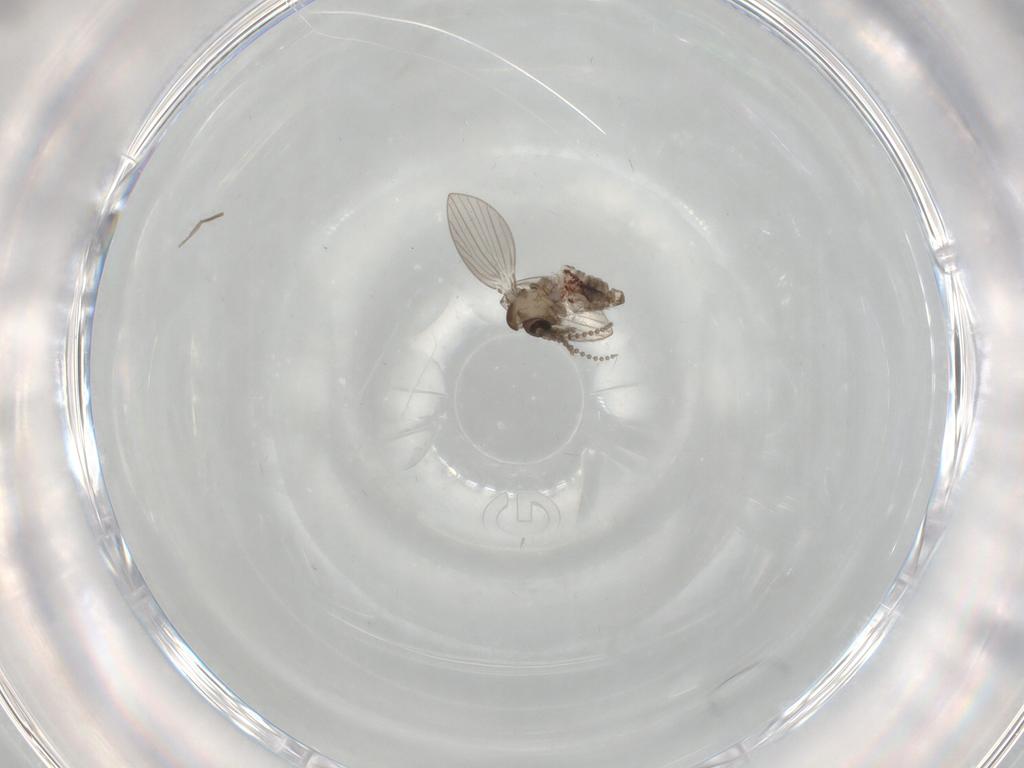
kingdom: Animalia
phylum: Arthropoda
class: Insecta
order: Diptera
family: Psychodidae
